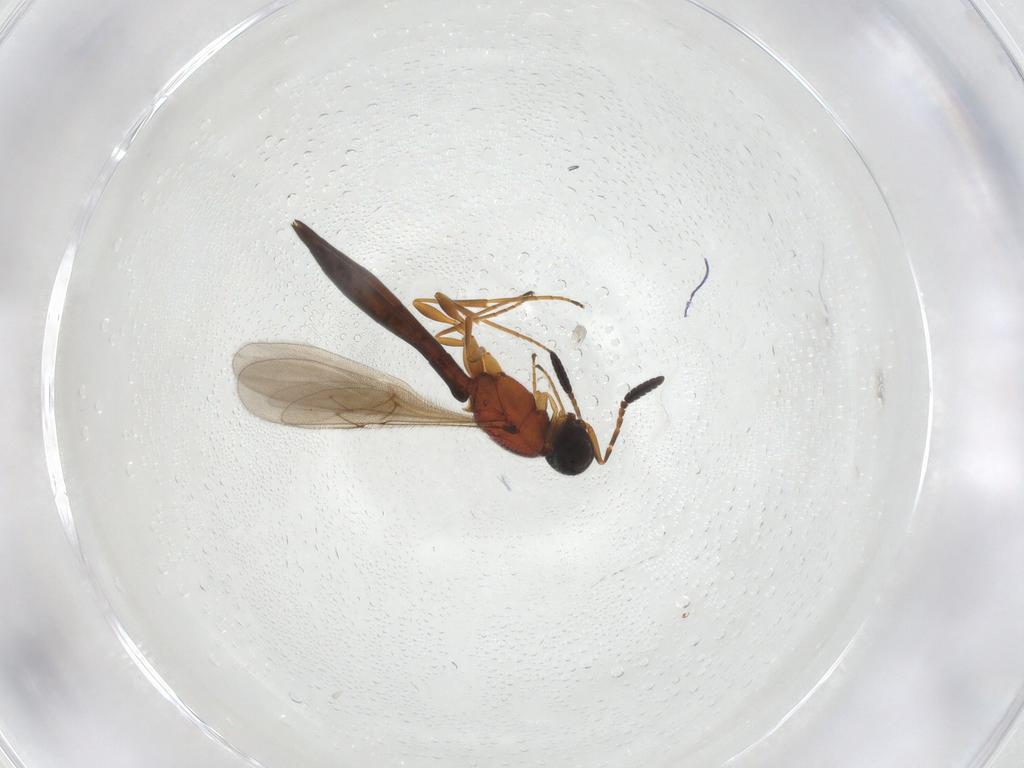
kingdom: Animalia
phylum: Arthropoda
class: Insecta
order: Hymenoptera
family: Scelionidae
